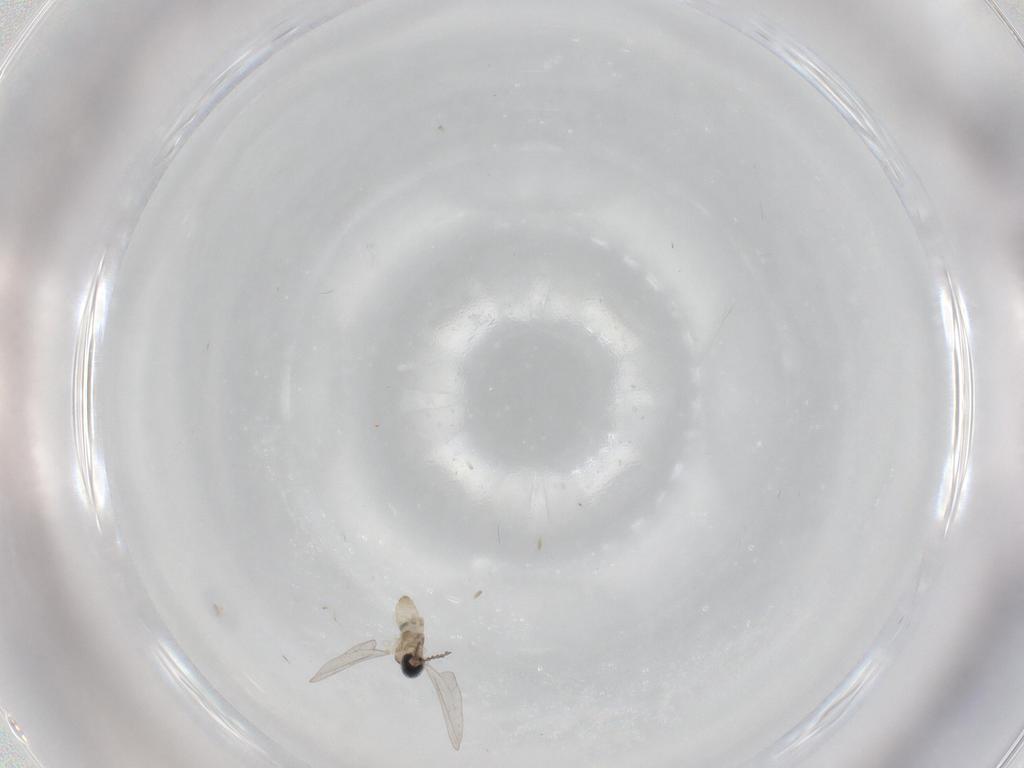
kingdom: Animalia
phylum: Arthropoda
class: Insecta
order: Diptera
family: Cecidomyiidae
